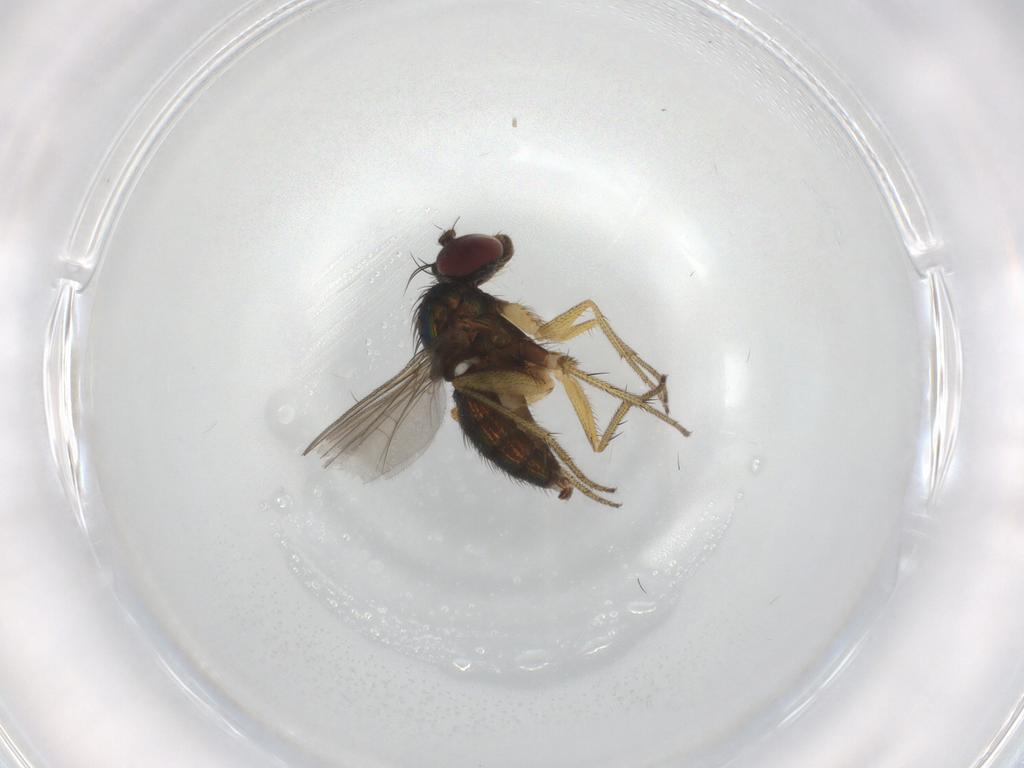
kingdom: Animalia
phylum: Arthropoda
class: Insecta
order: Diptera
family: Dolichopodidae
